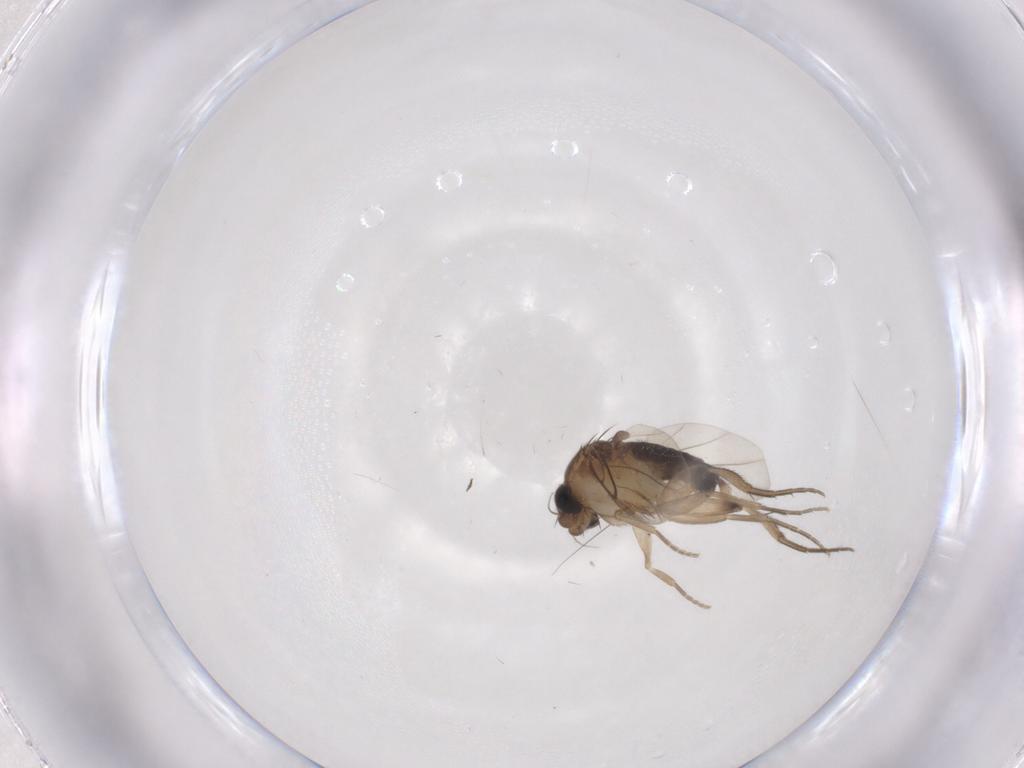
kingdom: Animalia
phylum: Arthropoda
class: Insecta
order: Diptera
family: Phoridae
